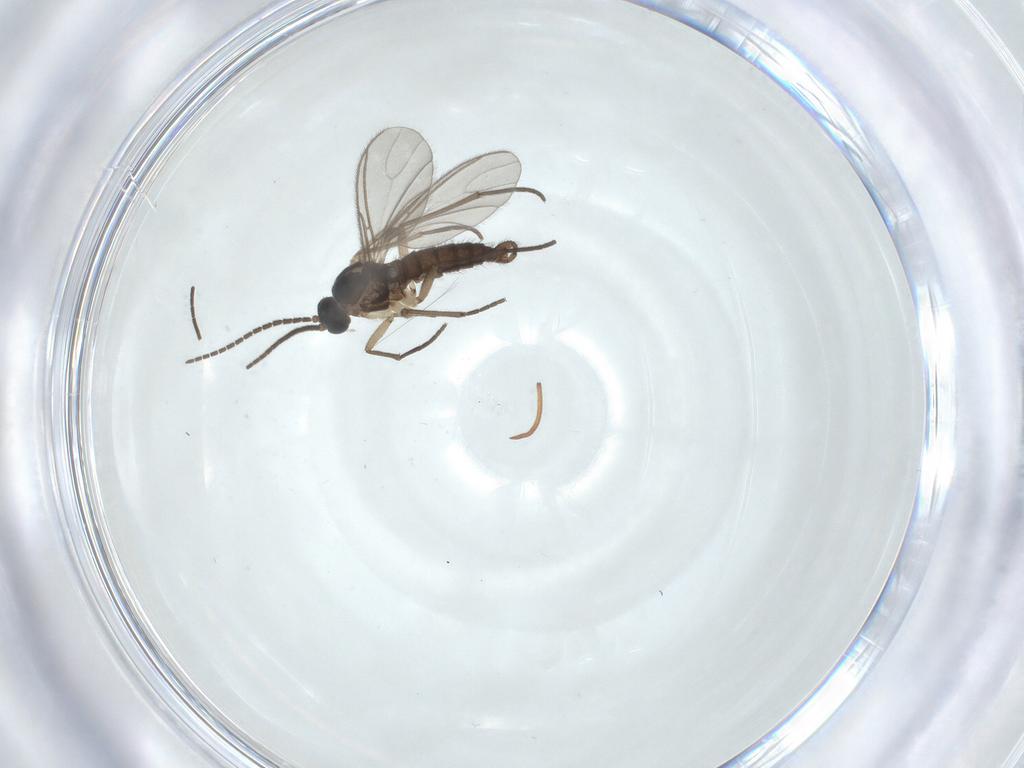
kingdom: Animalia
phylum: Arthropoda
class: Insecta
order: Diptera
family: Sciaridae
